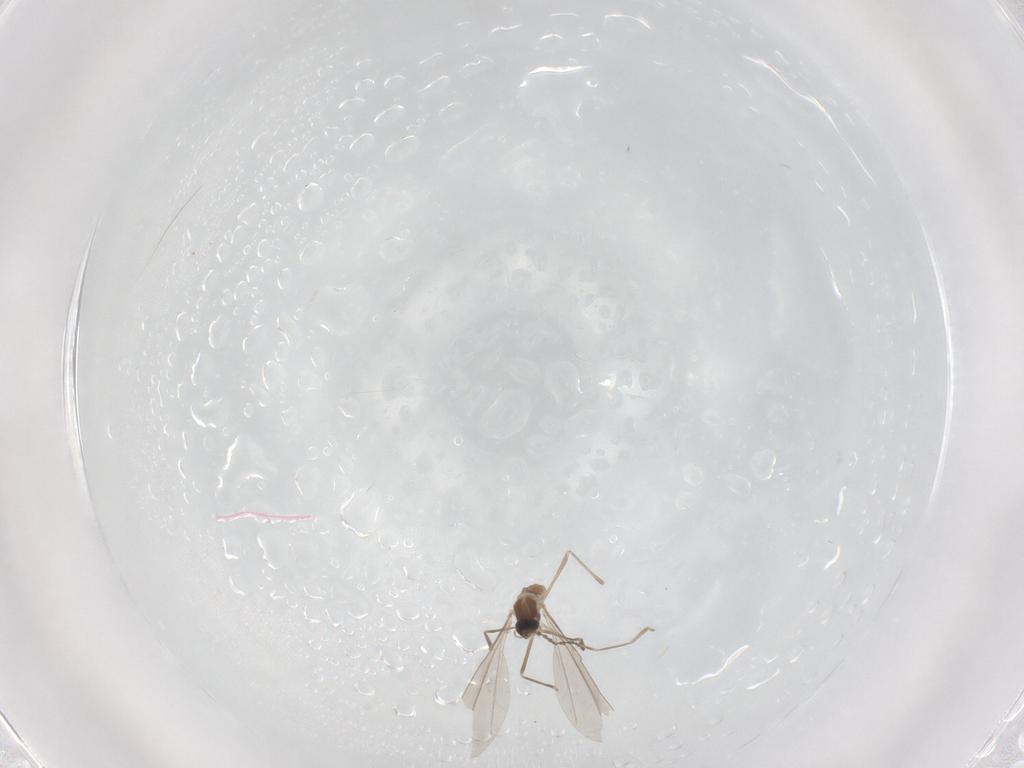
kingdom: Animalia
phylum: Arthropoda
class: Insecta
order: Diptera
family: Cecidomyiidae
